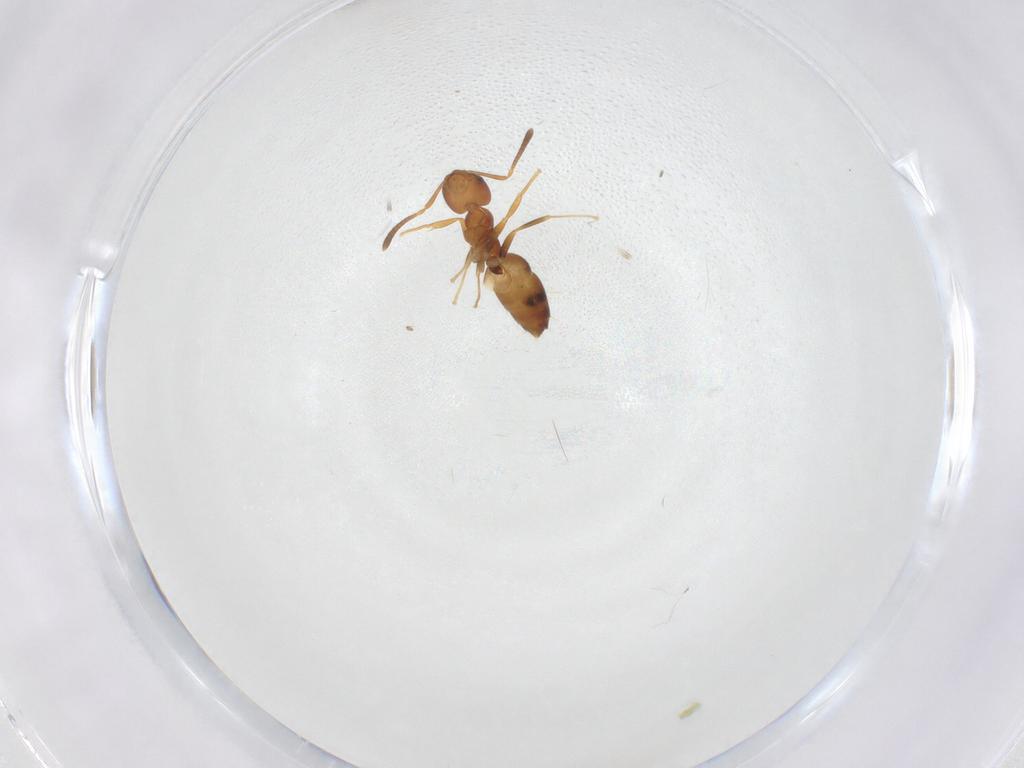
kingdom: Animalia
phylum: Arthropoda
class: Insecta
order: Hymenoptera
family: Formicidae
